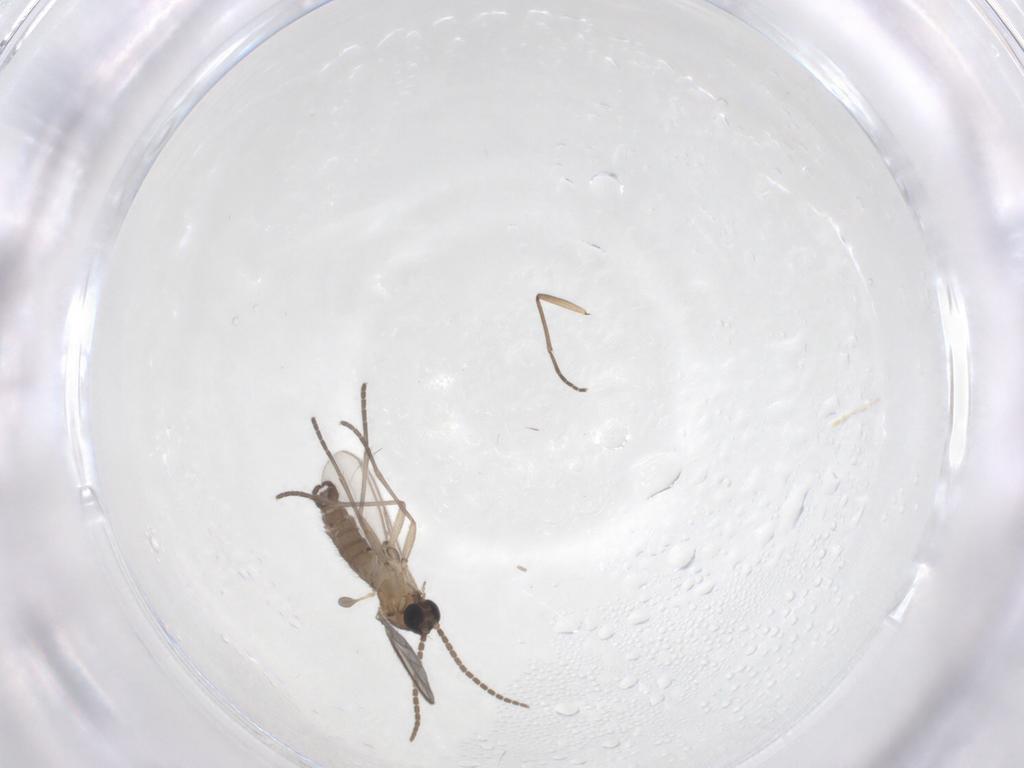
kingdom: Animalia
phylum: Arthropoda
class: Insecta
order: Diptera
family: Sciaridae
